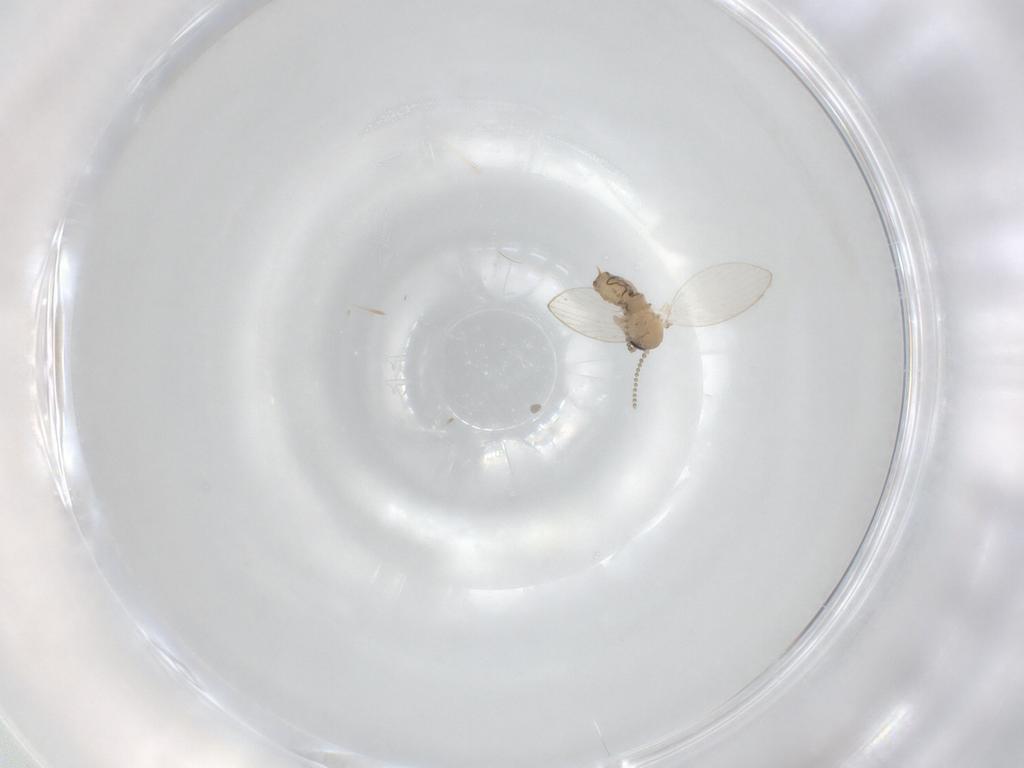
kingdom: Animalia
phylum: Arthropoda
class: Insecta
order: Diptera
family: Psychodidae
